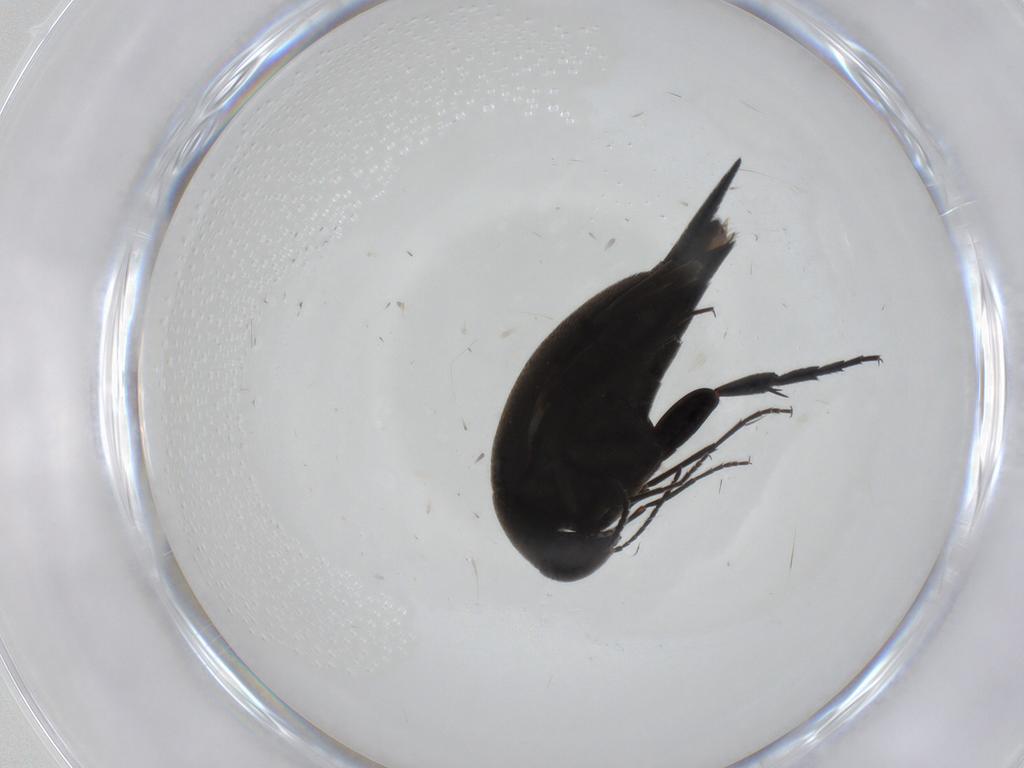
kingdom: Animalia
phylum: Arthropoda
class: Insecta
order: Coleoptera
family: Mordellidae
